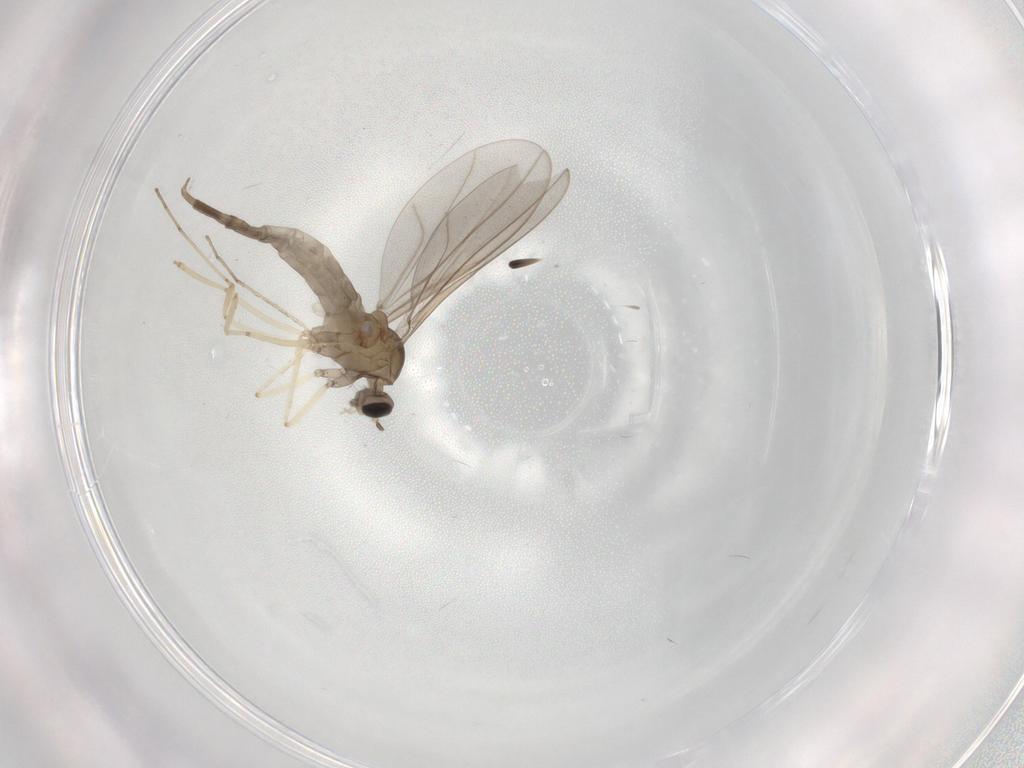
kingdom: Animalia
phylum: Arthropoda
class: Insecta
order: Diptera
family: Cecidomyiidae
